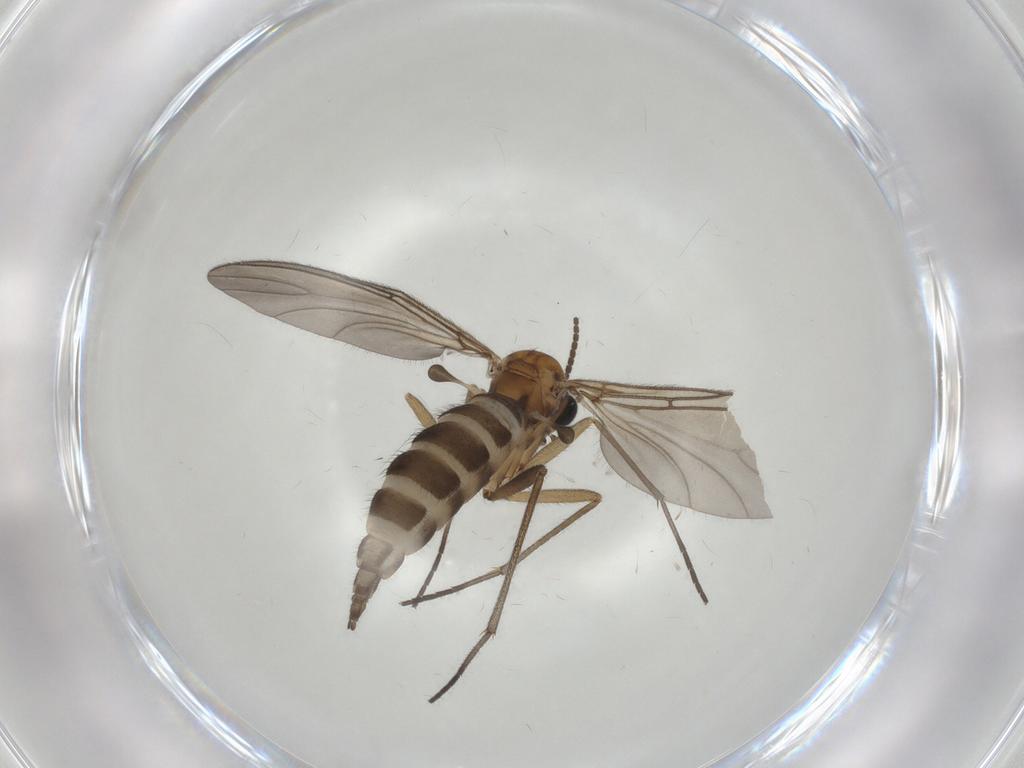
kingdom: Animalia
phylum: Arthropoda
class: Insecta
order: Diptera
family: Sciaridae
